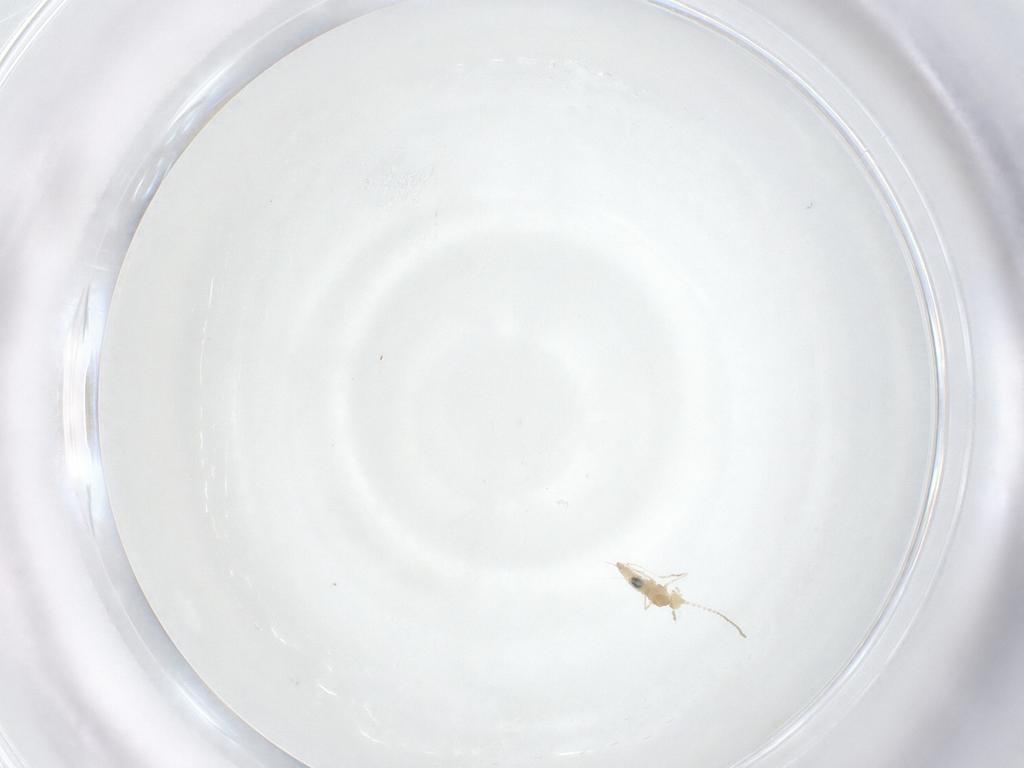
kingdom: Animalia
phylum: Arthropoda
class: Insecta
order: Diptera
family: Cecidomyiidae
